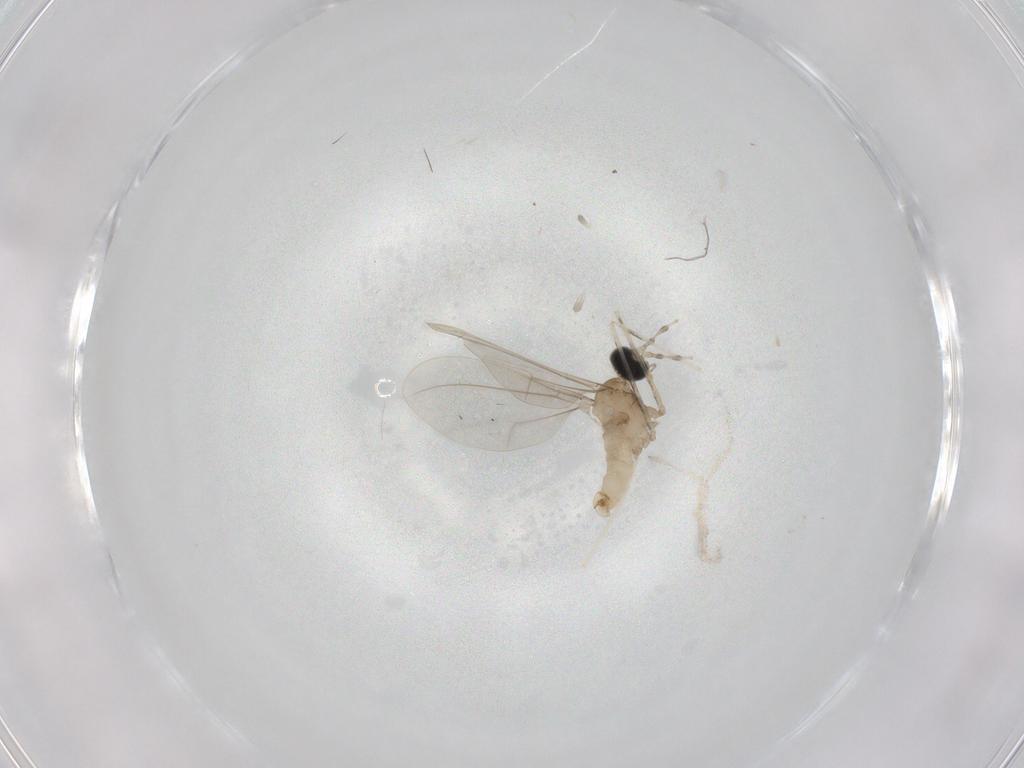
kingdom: Animalia
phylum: Arthropoda
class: Insecta
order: Diptera
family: Cecidomyiidae
